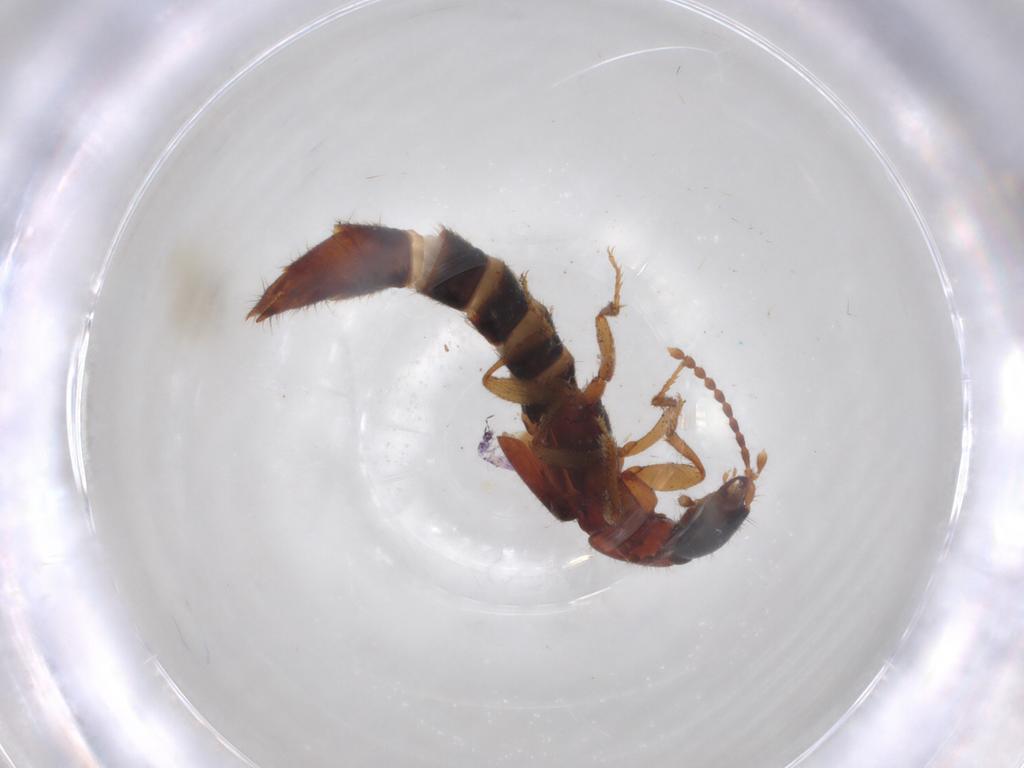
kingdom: Animalia
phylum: Arthropoda
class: Insecta
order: Coleoptera
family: Staphylinidae
